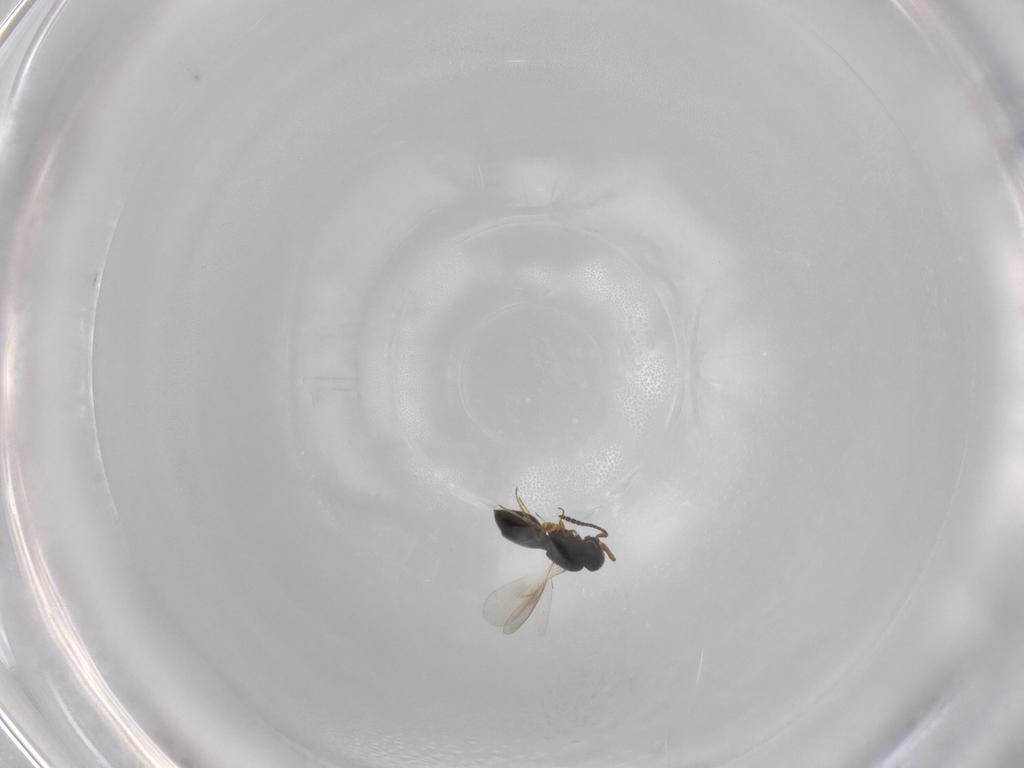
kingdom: Animalia
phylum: Arthropoda
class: Insecta
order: Hymenoptera
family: Scelionidae
